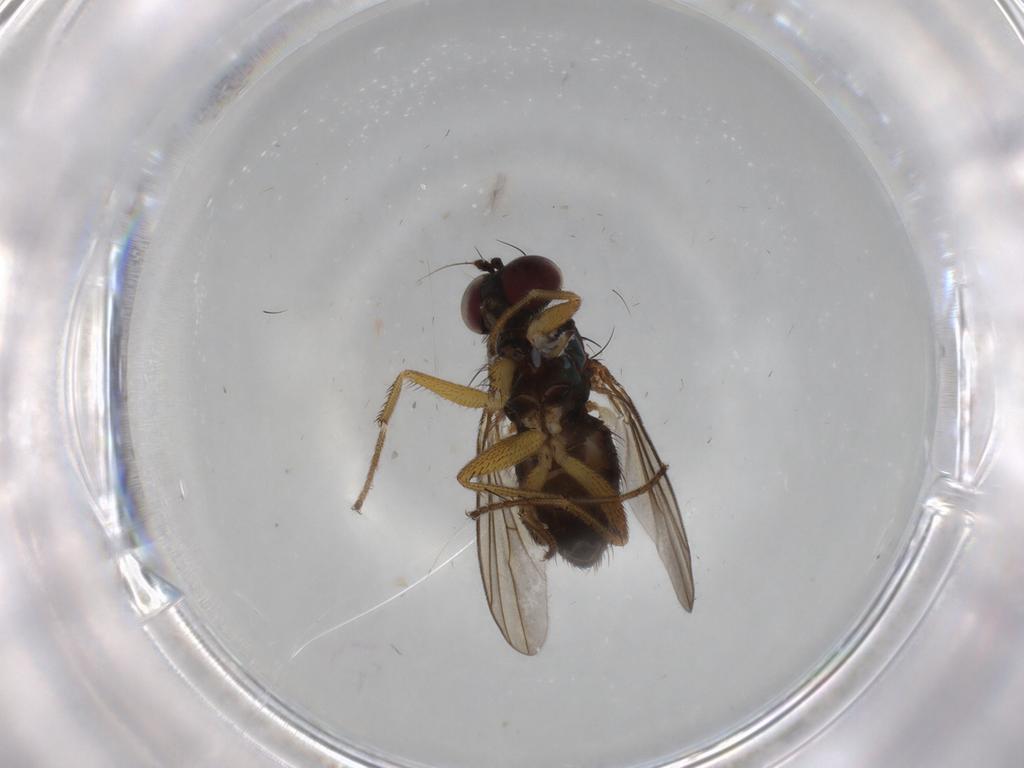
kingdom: Animalia
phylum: Arthropoda
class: Insecta
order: Diptera
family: Dolichopodidae
